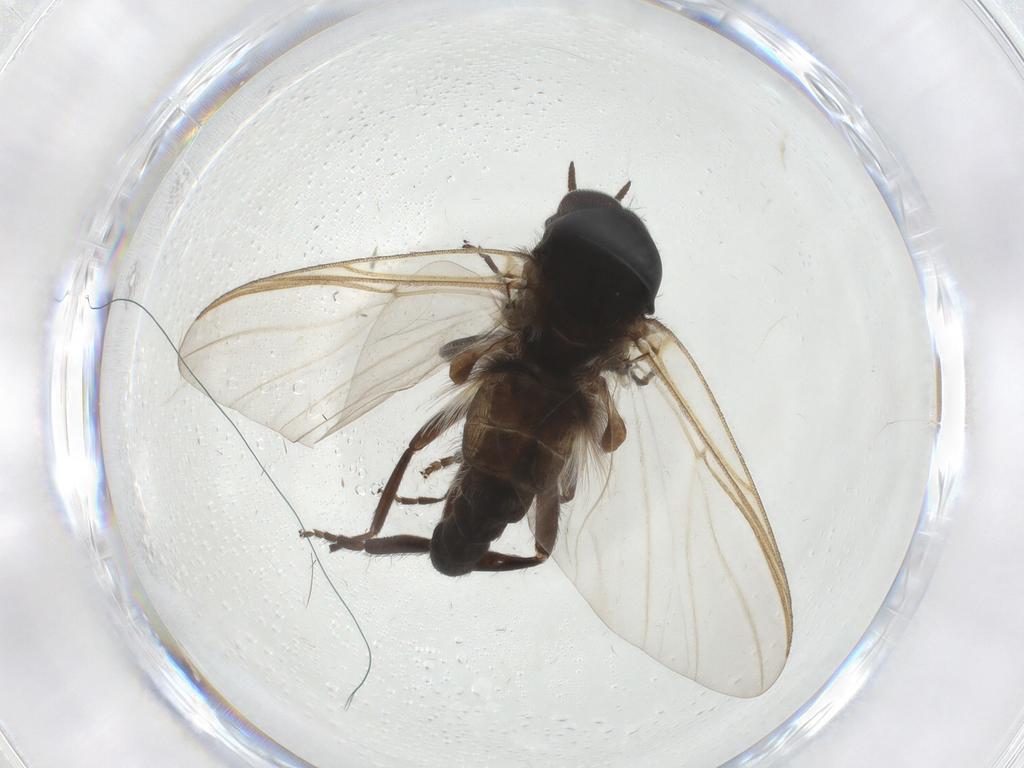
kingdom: Animalia
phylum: Arthropoda
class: Insecta
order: Diptera
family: Simuliidae
